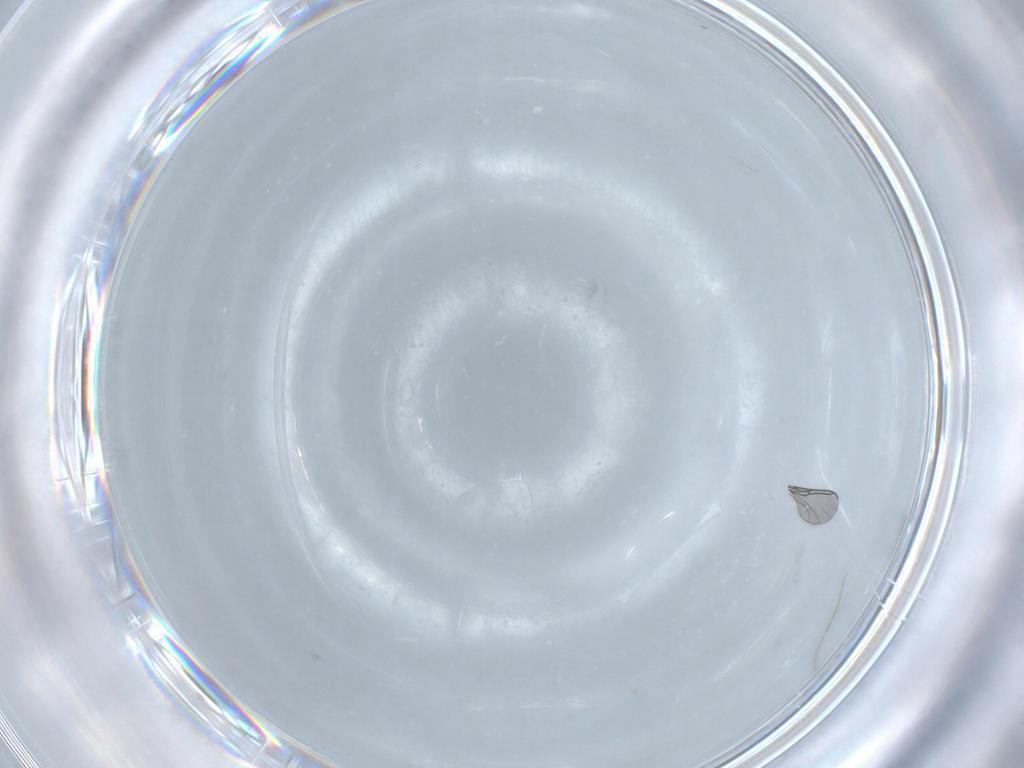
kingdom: Animalia
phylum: Arthropoda
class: Insecta
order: Diptera
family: Sciaridae
